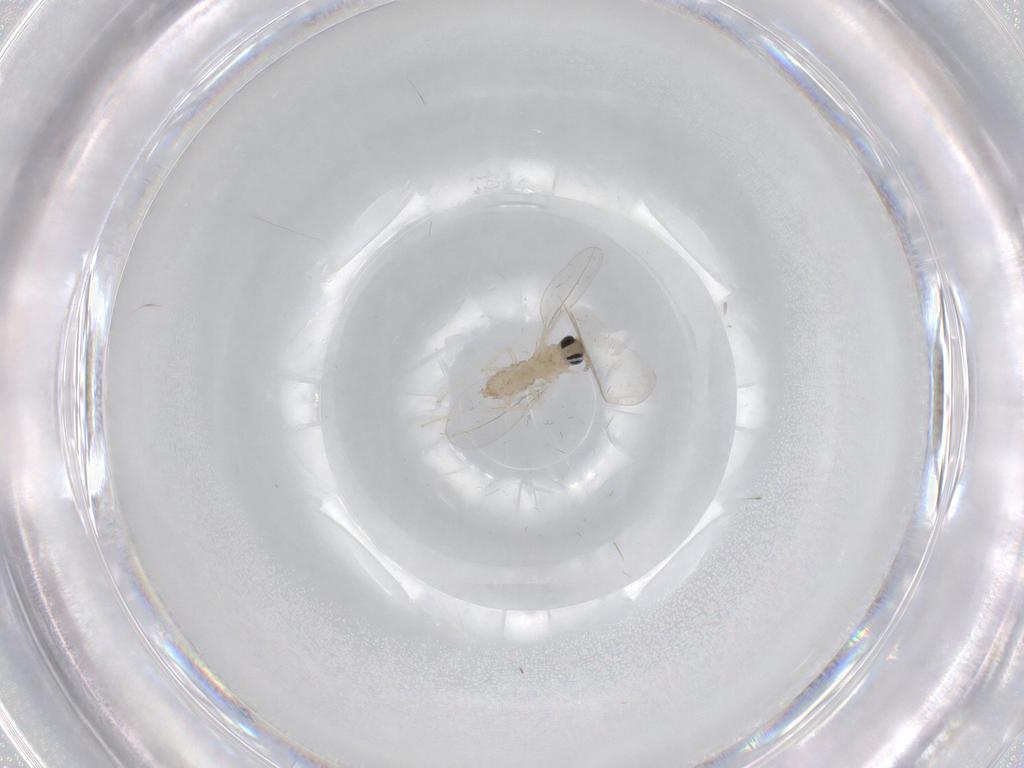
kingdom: Animalia
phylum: Arthropoda
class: Insecta
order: Diptera
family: Cecidomyiidae
